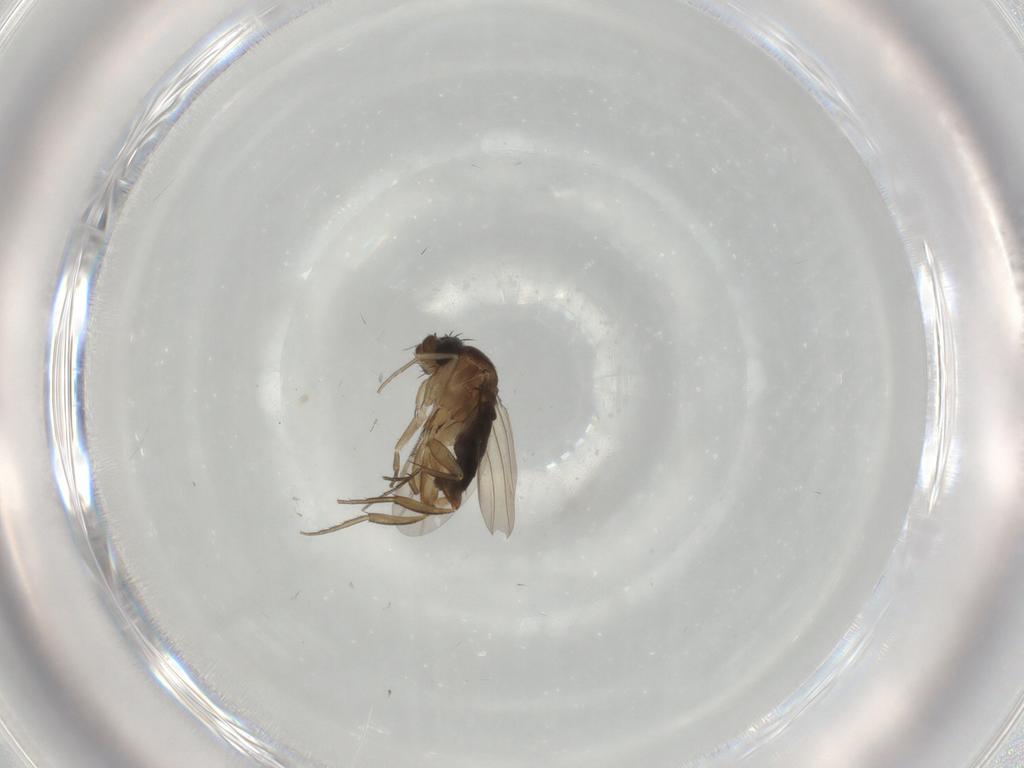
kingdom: Animalia
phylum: Arthropoda
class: Insecta
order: Diptera
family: Phoridae
